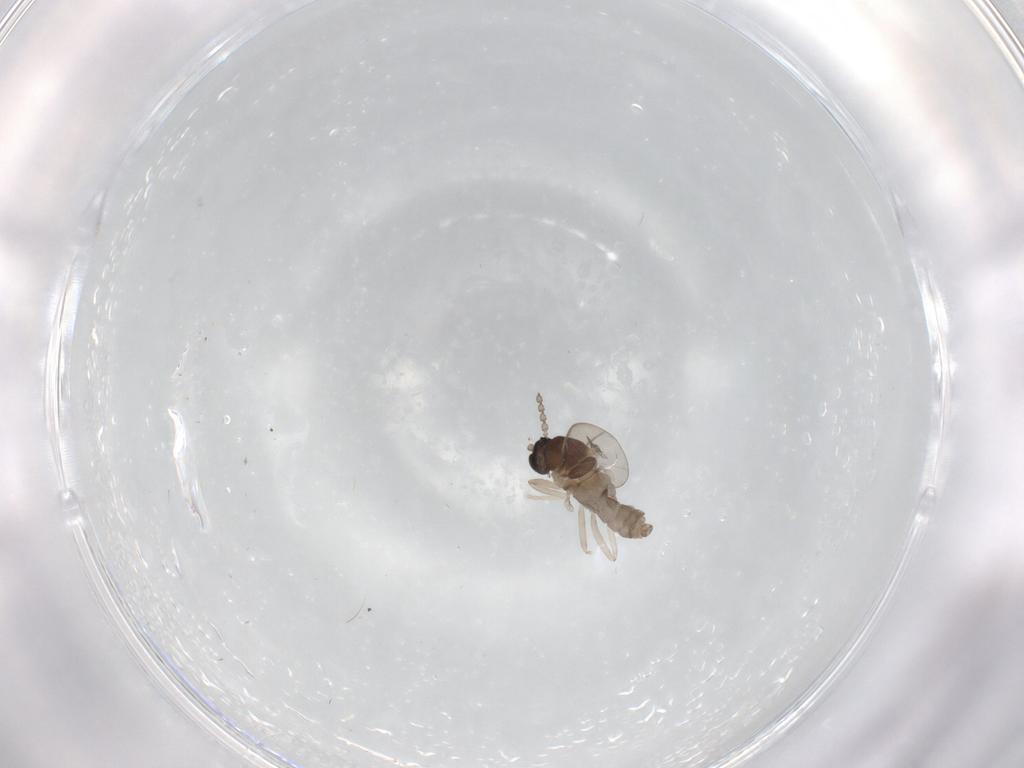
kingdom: Animalia
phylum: Arthropoda
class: Insecta
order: Diptera
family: Cecidomyiidae
